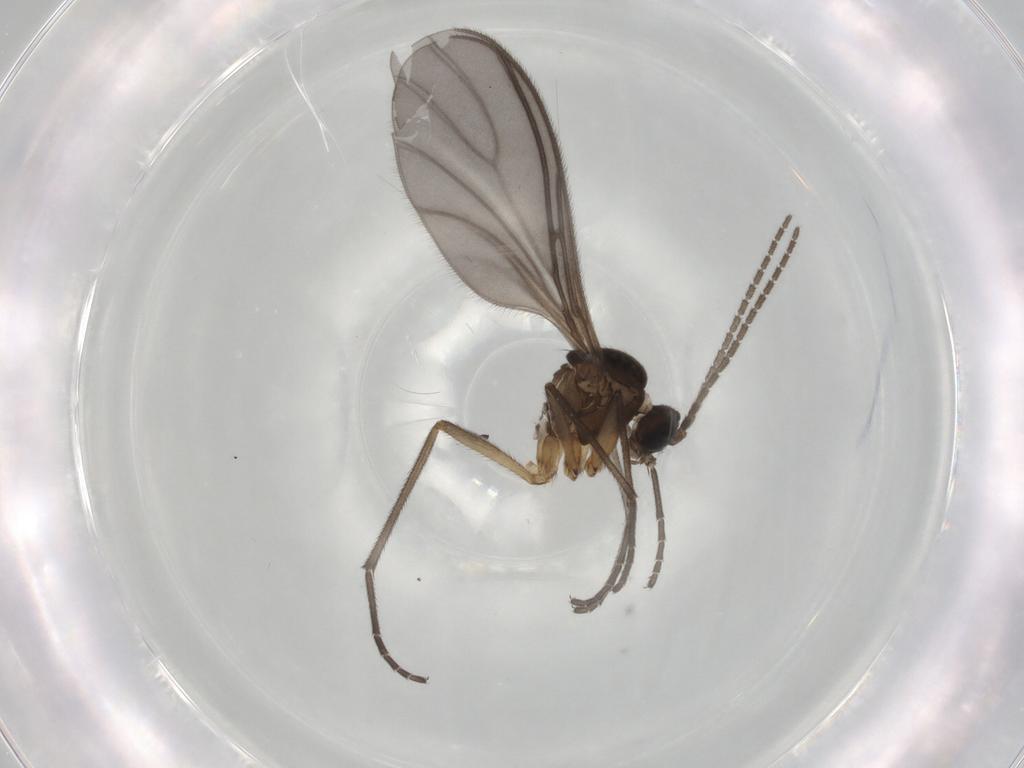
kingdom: Animalia
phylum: Arthropoda
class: Insecta
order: Diptera
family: Sciaridae
